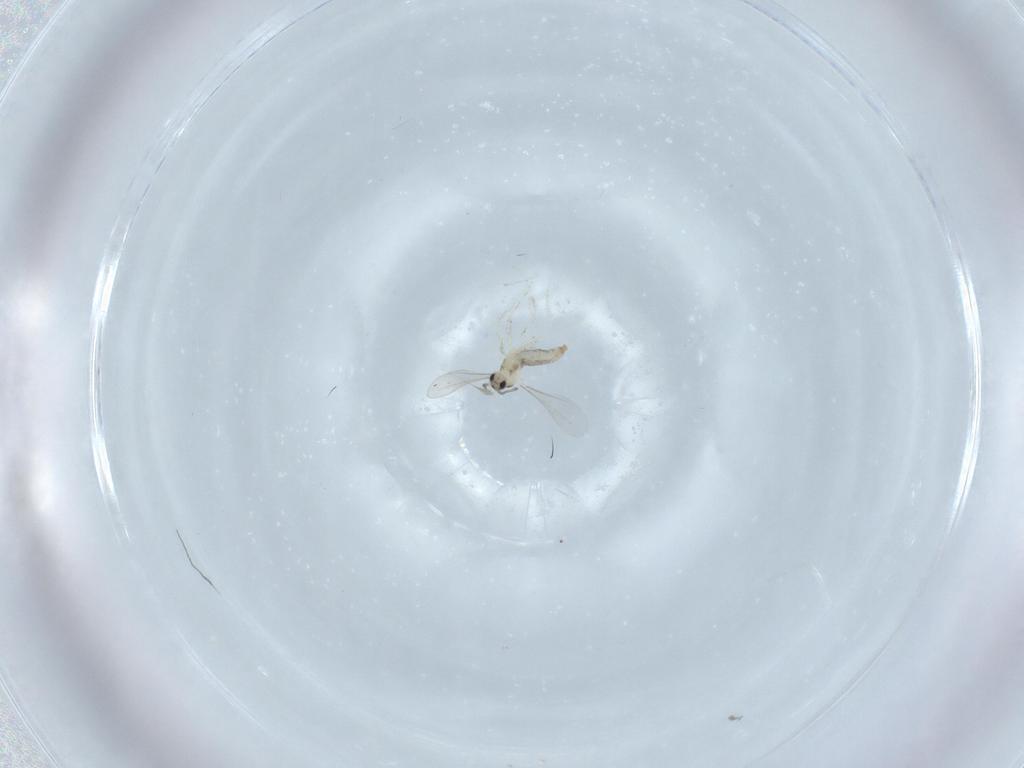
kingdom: Animalia
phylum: Arthropoda
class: Insecta
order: Diptera
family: Cecidomyiidae
